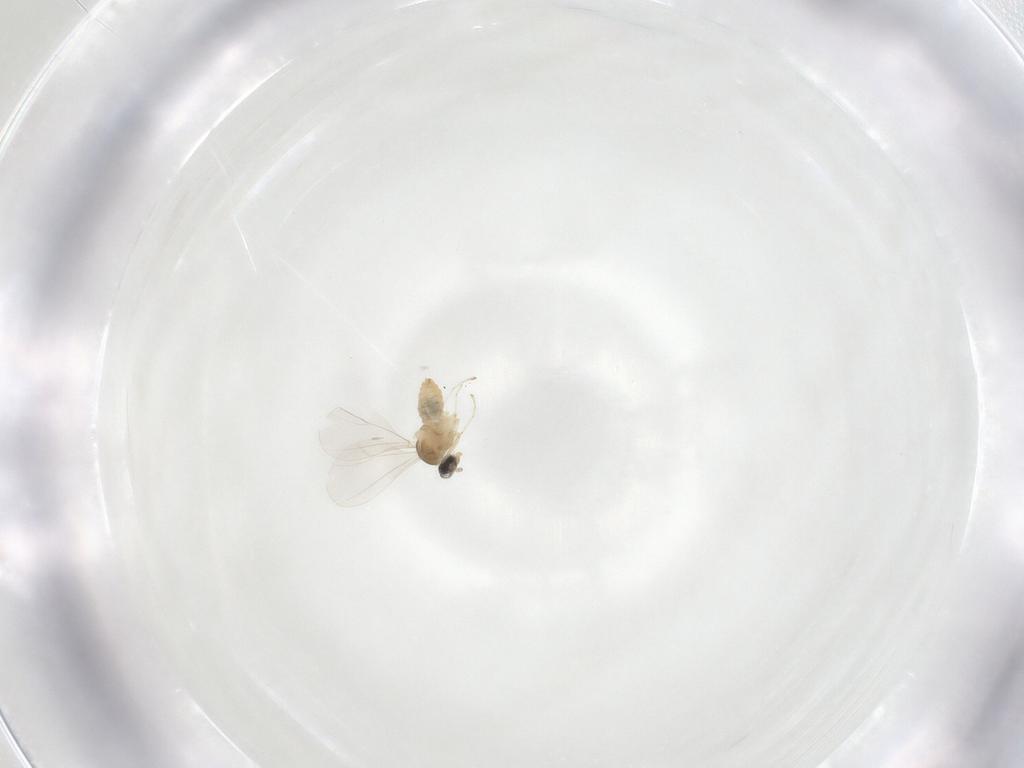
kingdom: Animalia
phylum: Arthropoda
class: Insecta
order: Diptera
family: Cecidomyiidae
